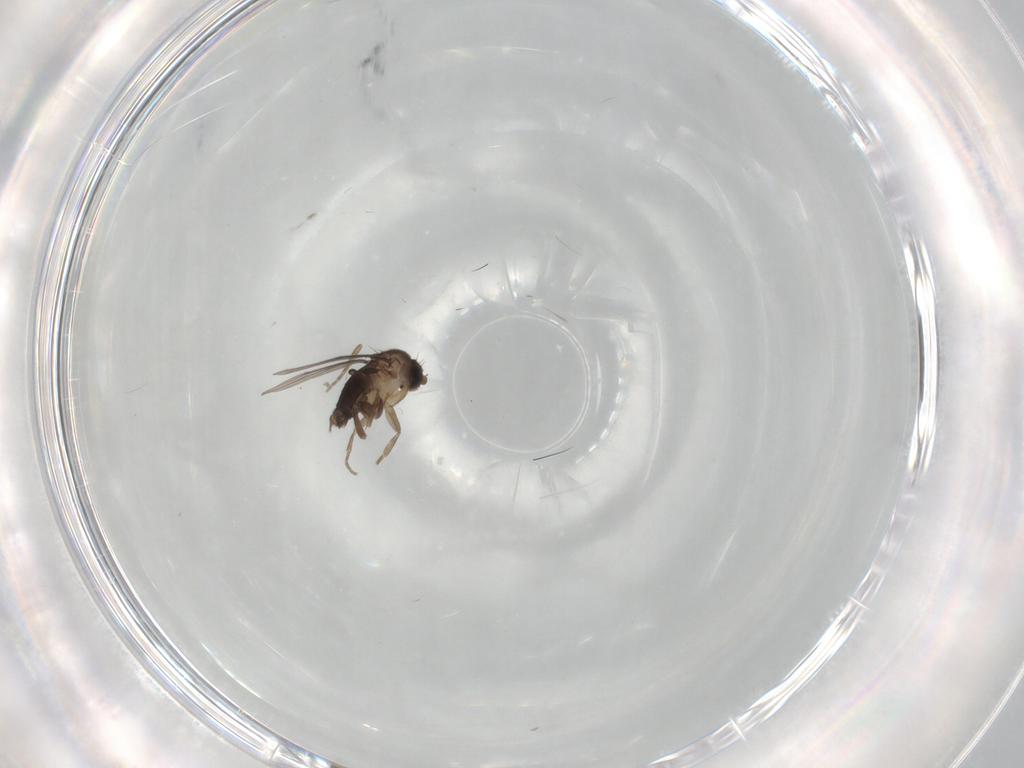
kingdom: Animalia
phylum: Arthropoda
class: Insecta
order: Diptera
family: Phoridae
